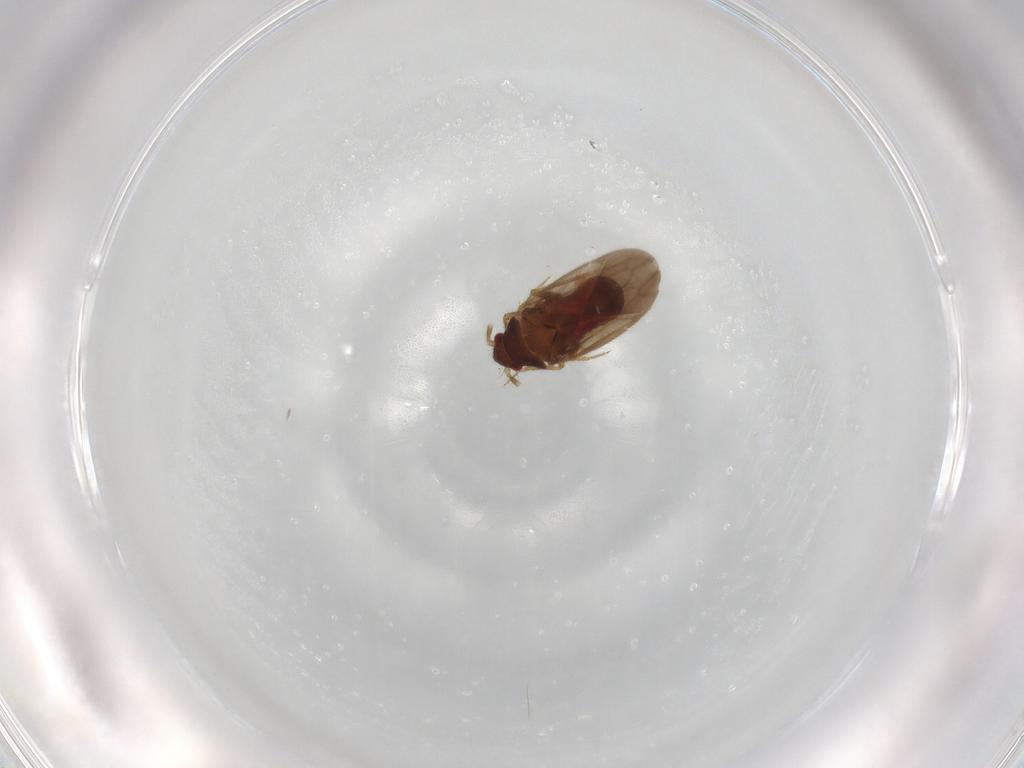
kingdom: Animalia
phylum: Arthropoda
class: Insecta
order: Hemiptera
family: Ceratocombidae
